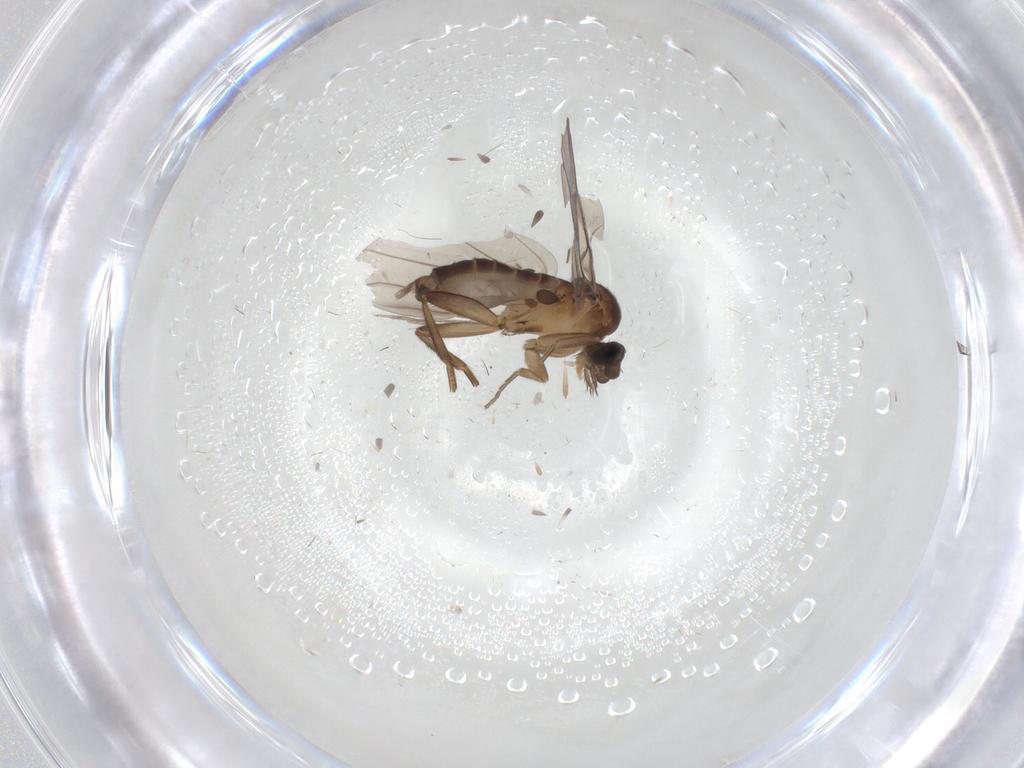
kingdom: Animalia
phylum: Arthropoda
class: Insecta
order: Diptera
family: Phoridae
